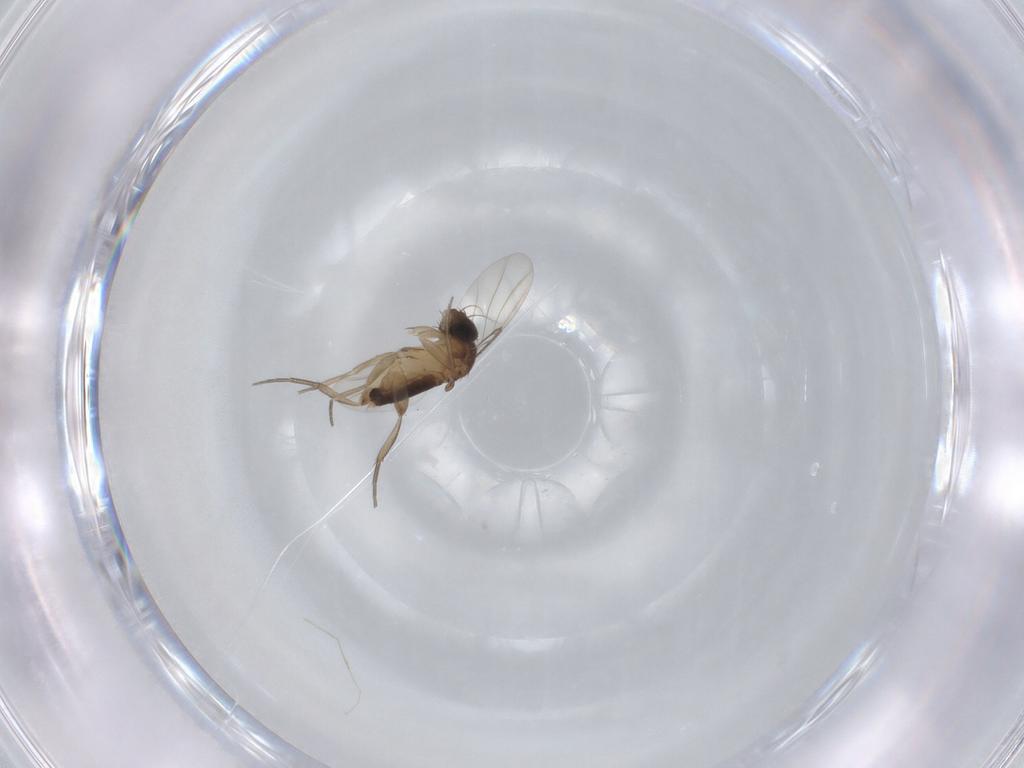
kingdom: Animalia
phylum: Arthropoda
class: Insecta
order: Diptera
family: Phoridae
